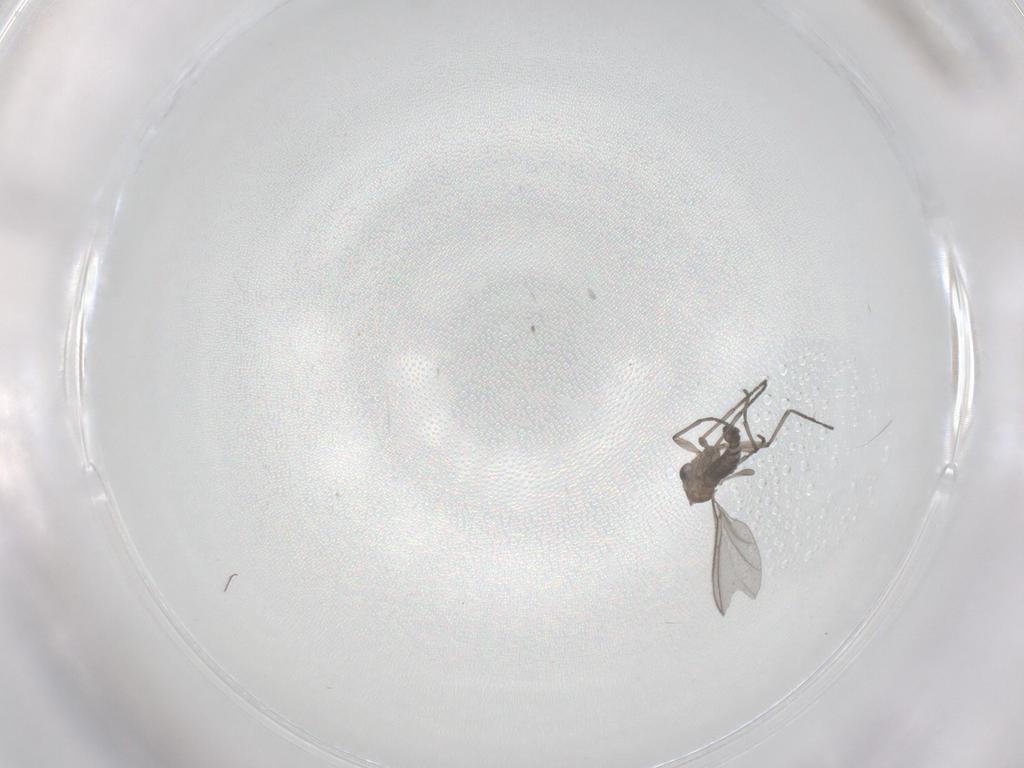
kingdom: Animalia
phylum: Arthropoda
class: Insecta
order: Diptera
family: Sciaridae
